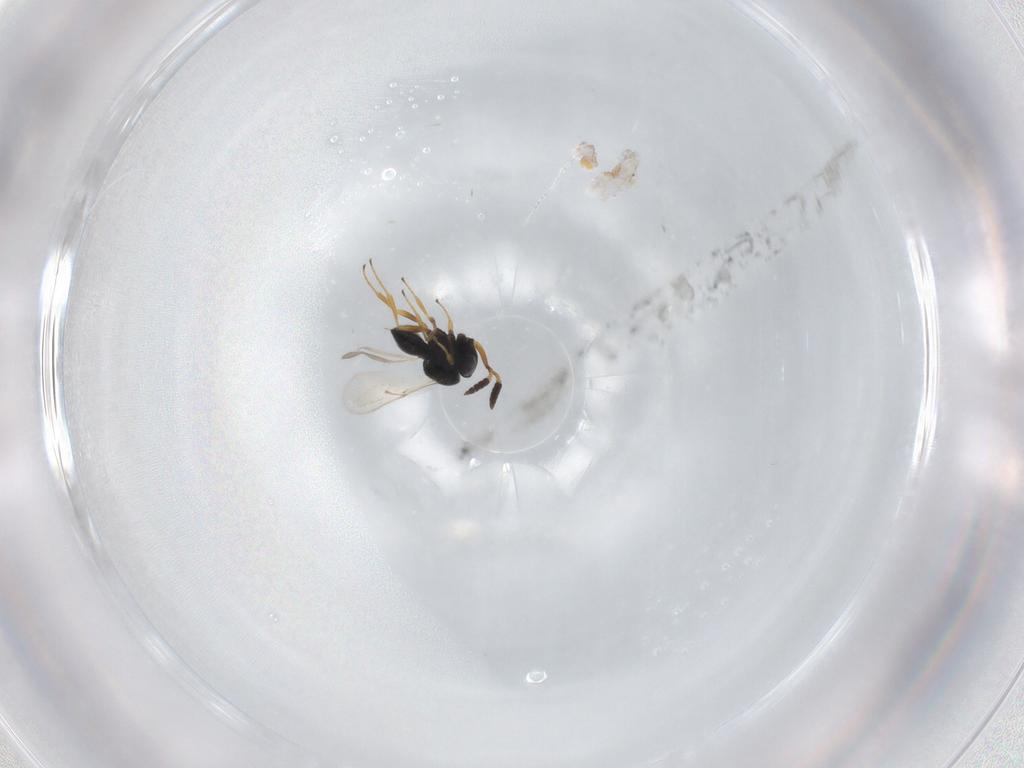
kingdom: Animalia
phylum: Arthropoda
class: Insecta
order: Hymenoptera
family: Scelionidae
